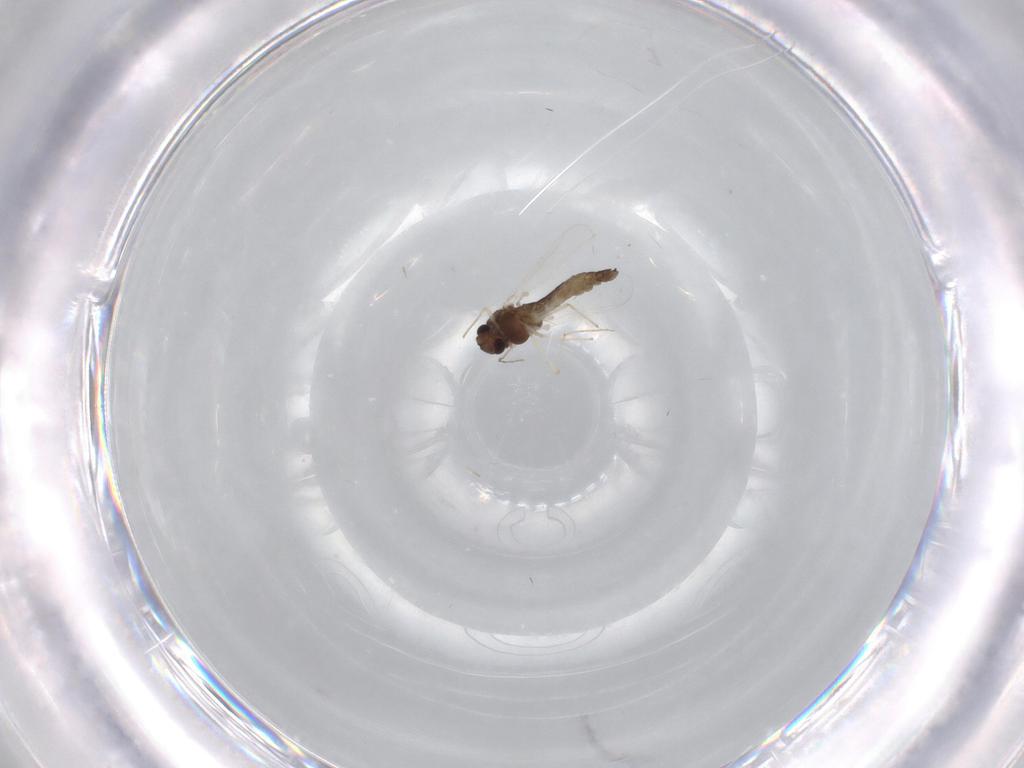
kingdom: Animalia
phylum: Arthropoda
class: Insecta
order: Diptera
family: Chironomidae
